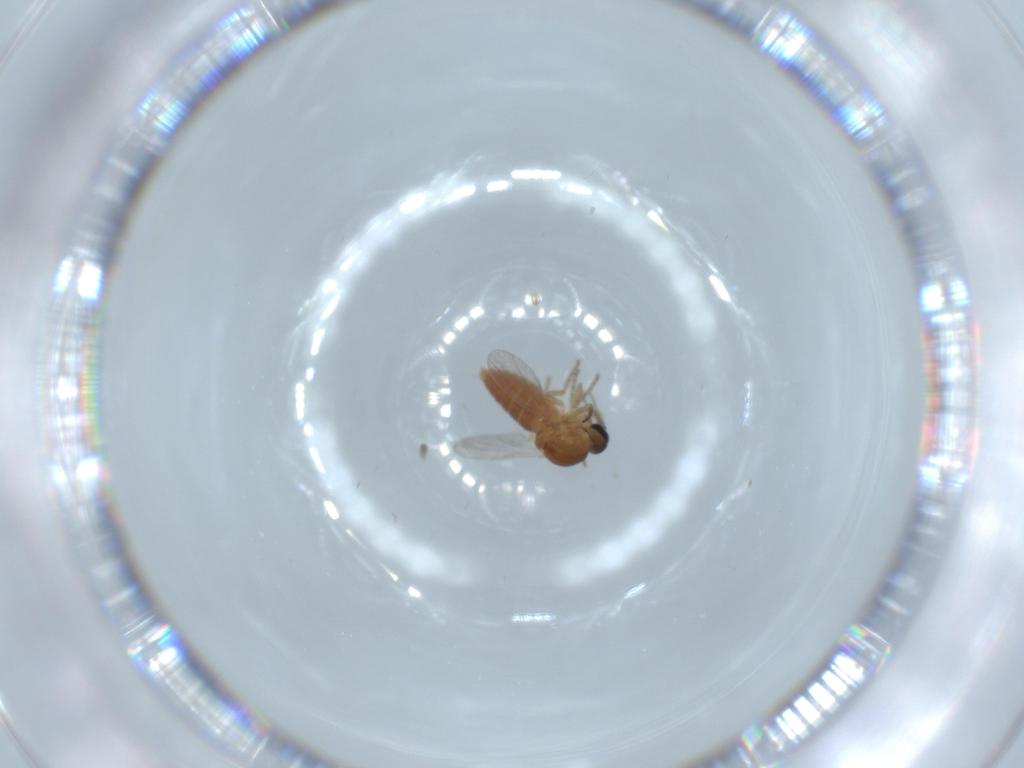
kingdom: Animalia
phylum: Arthropoda
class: Insecta
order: Diptera
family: Ceratopogonidae
